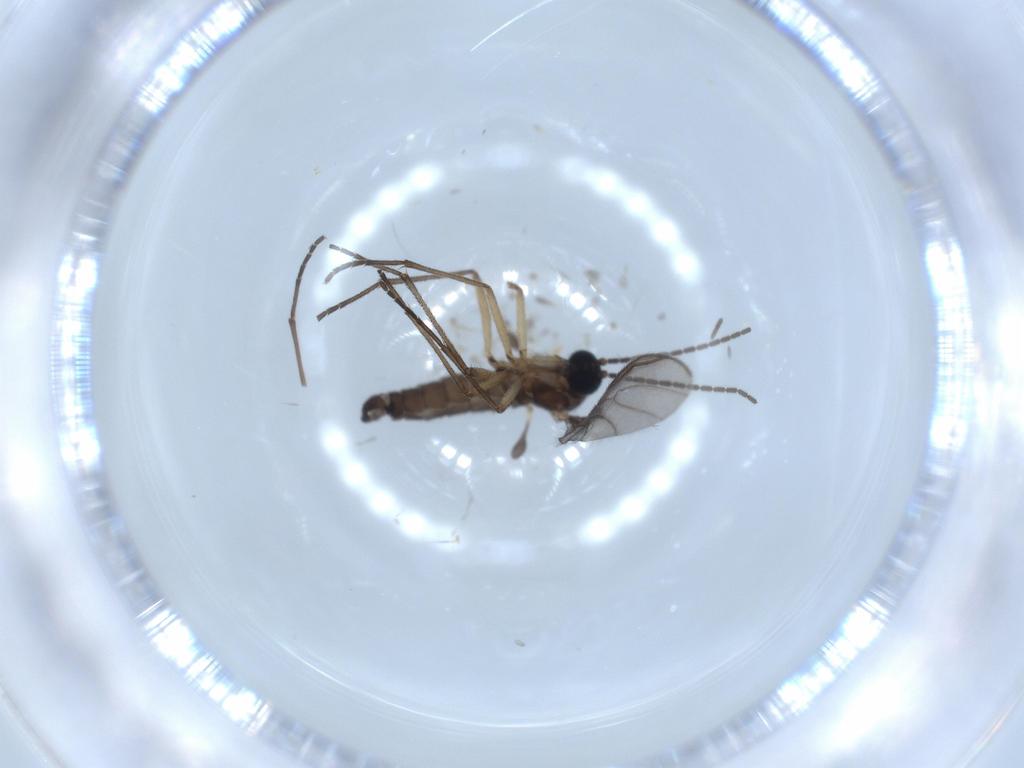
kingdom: Animalia
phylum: Arthropoda
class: Insecta
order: Diptera
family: Sciaridae
